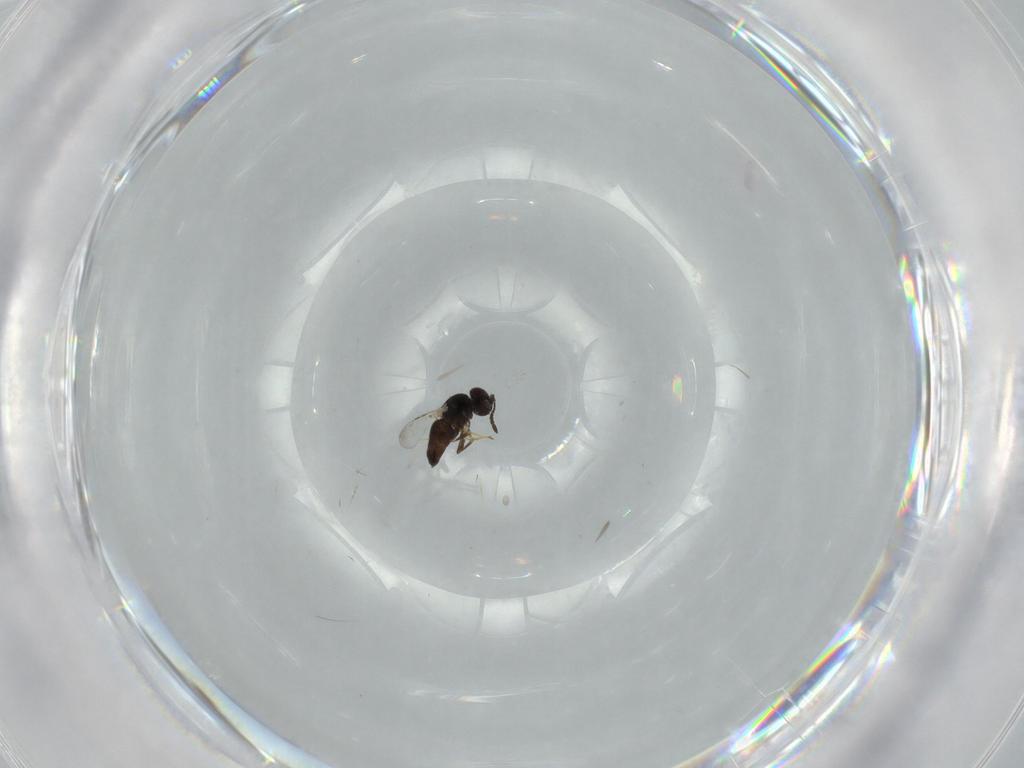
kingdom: Animalia
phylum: Arthropoda
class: Insecta
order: Hymenoptera
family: Ceraphronidae
